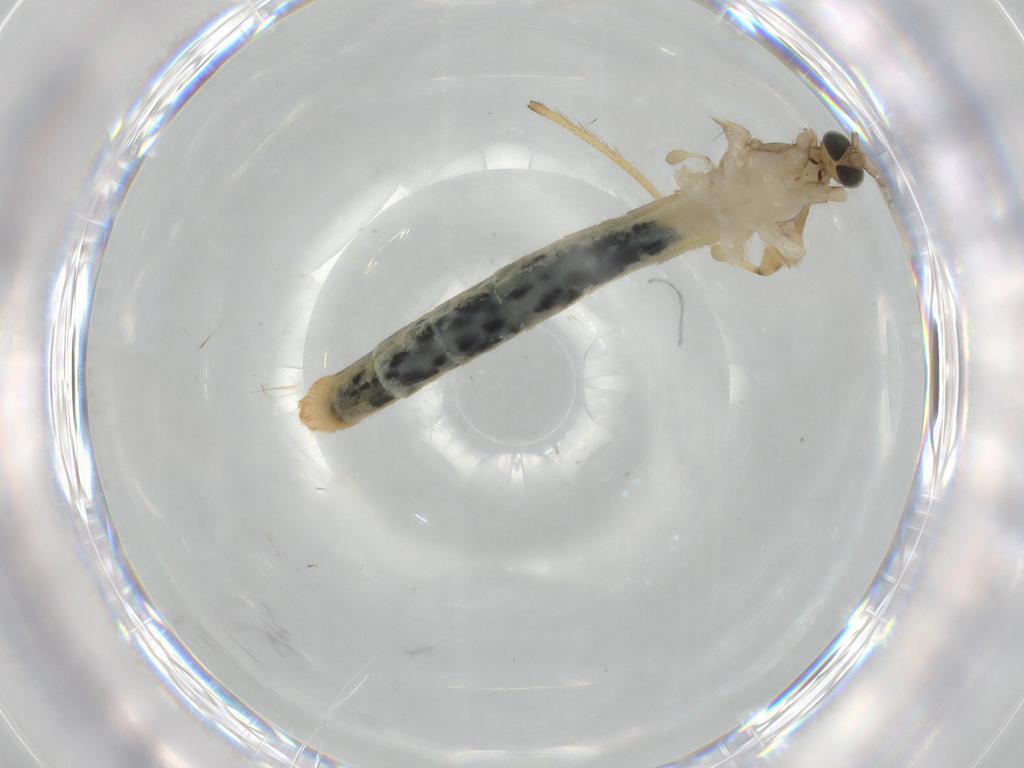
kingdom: Animalia
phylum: Arthropoda
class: Insecta
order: Diptera
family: Limoniidae
